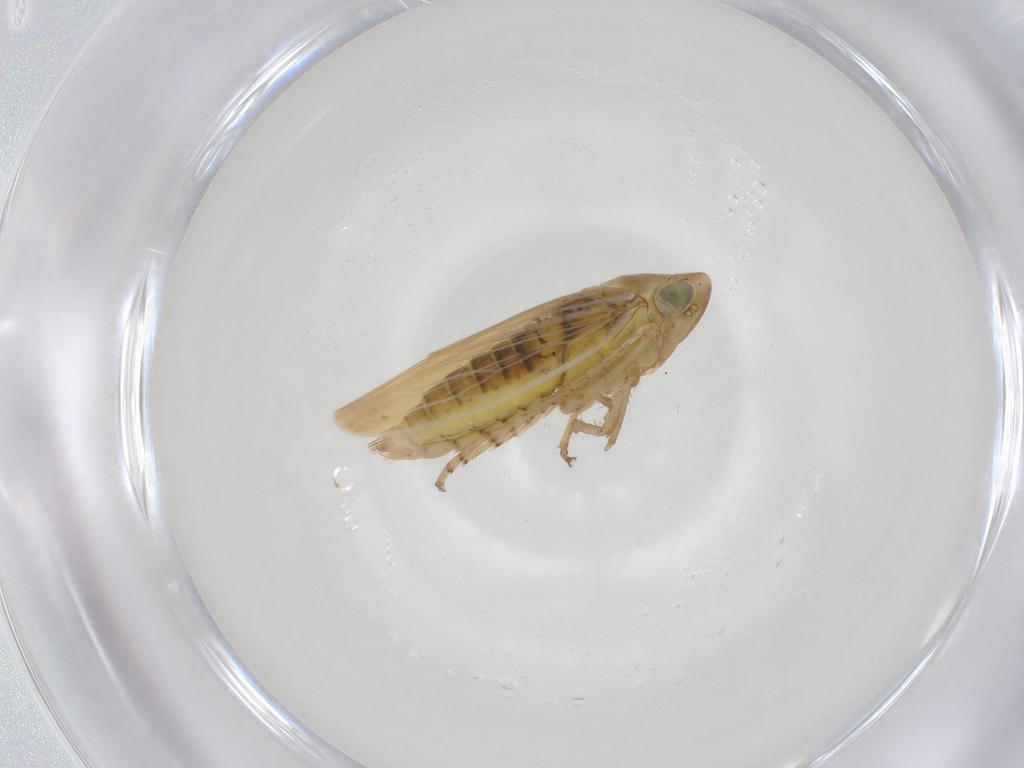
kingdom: Animalia
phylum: Arthropoda
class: Insecta
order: Hemiptera
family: Cicadellidae
